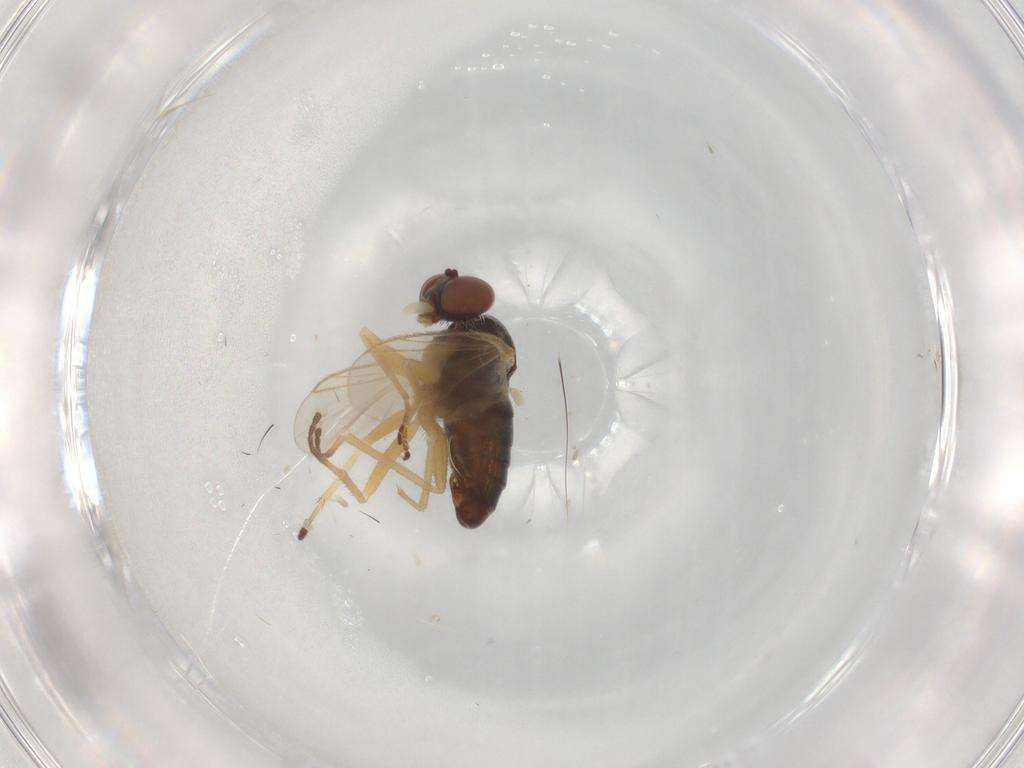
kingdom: Animalia
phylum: Arthropoda
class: Insecta
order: Diptera
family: Dolichopodidae
